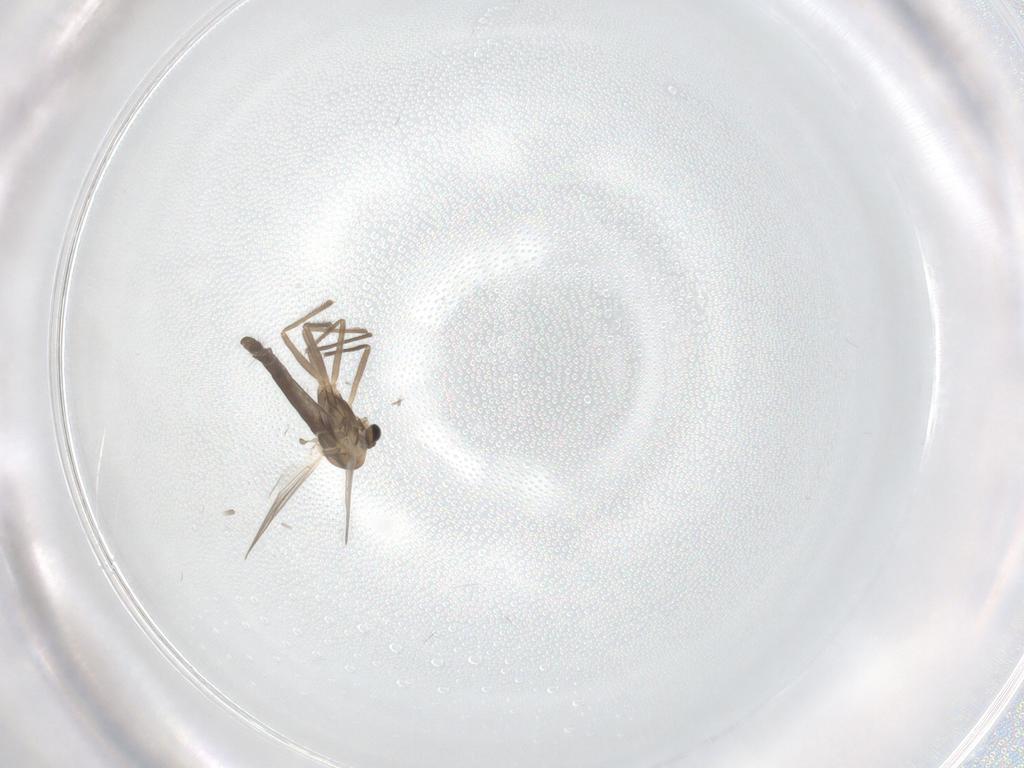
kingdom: Animalia
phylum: Arthropoda
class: Insecta
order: Diptera
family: Chironomidae
